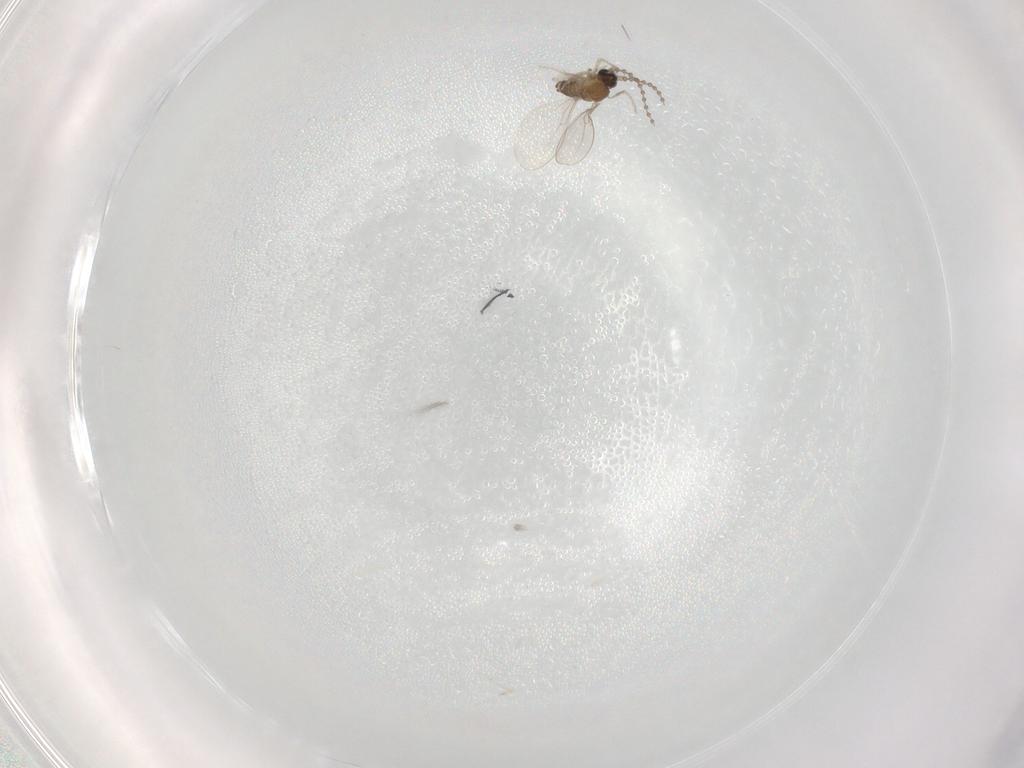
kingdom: Animalia
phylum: Arthropoda
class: Insecta
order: Diptera
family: Cecidomyiidae
